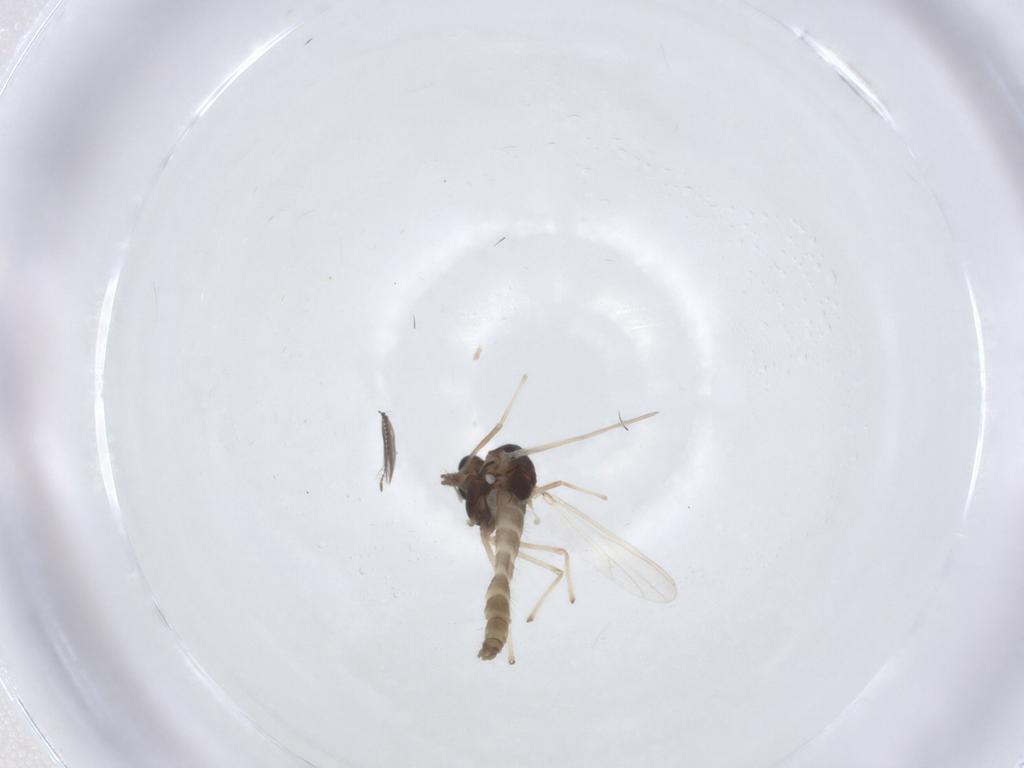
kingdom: Animalia
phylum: Arthropoda
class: Insecta
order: Diptera
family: Chironomidae
